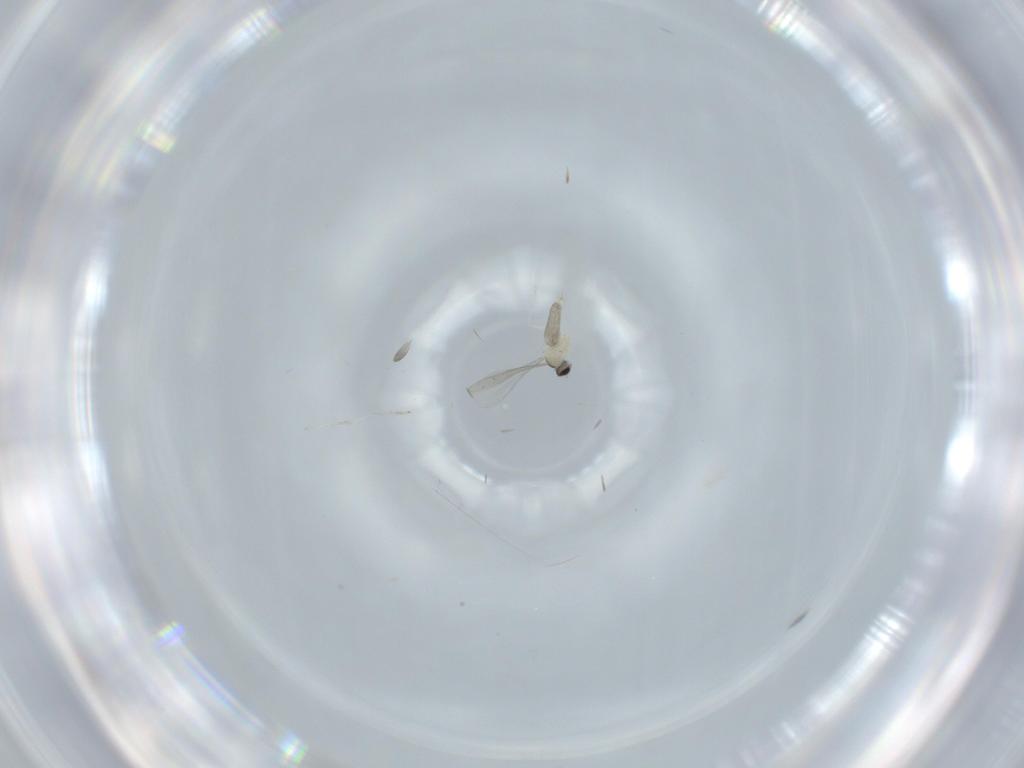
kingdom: Animalia
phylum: Arthropoda
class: Insecta
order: Diptera
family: Cecidomyiidae
